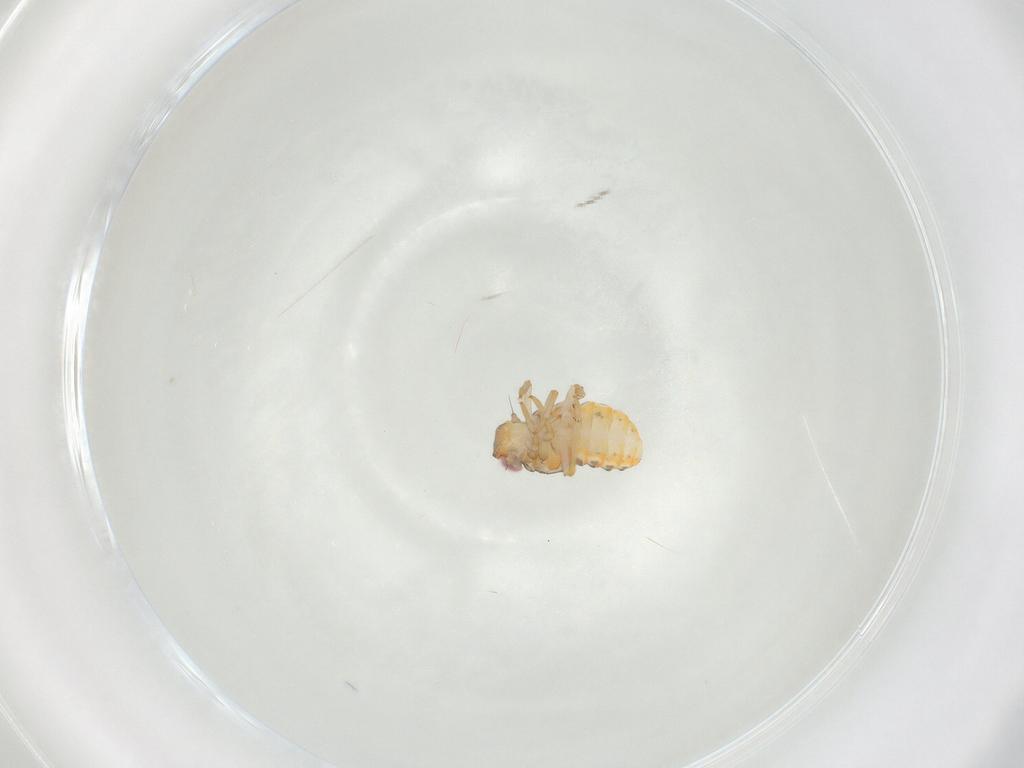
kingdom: Animalia
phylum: Arthropoda
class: Insecta
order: Hemiptera
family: Issidae
